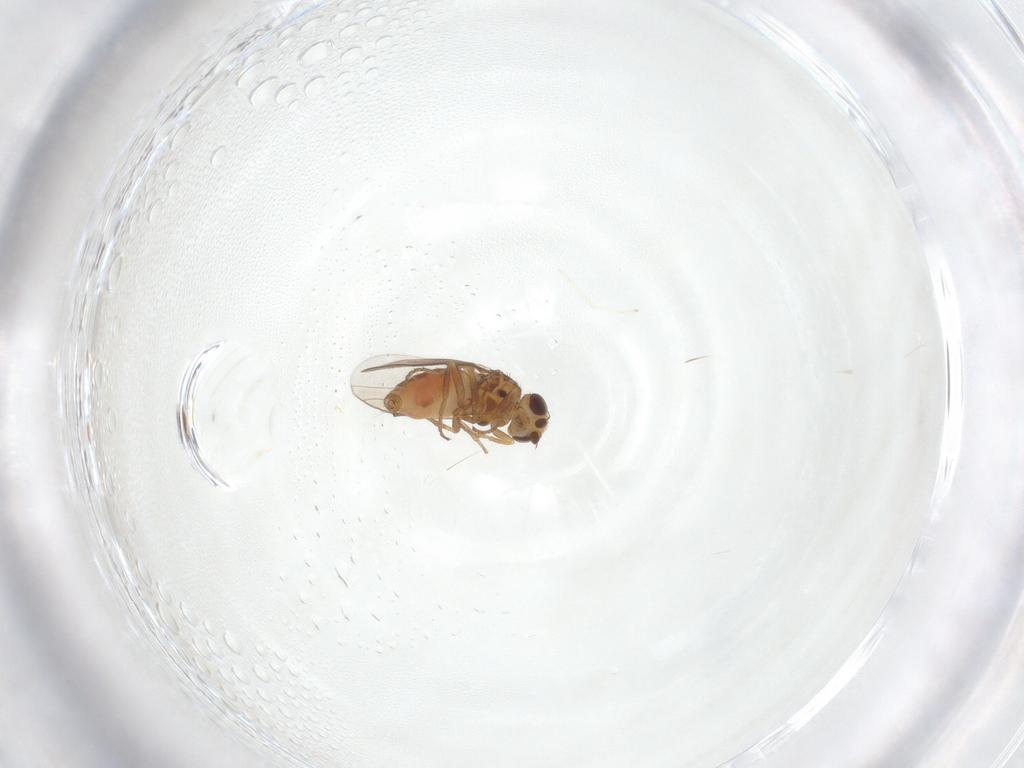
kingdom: Animalia
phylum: Arthropoda
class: Insecta
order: Diptera
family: Chloropidae
